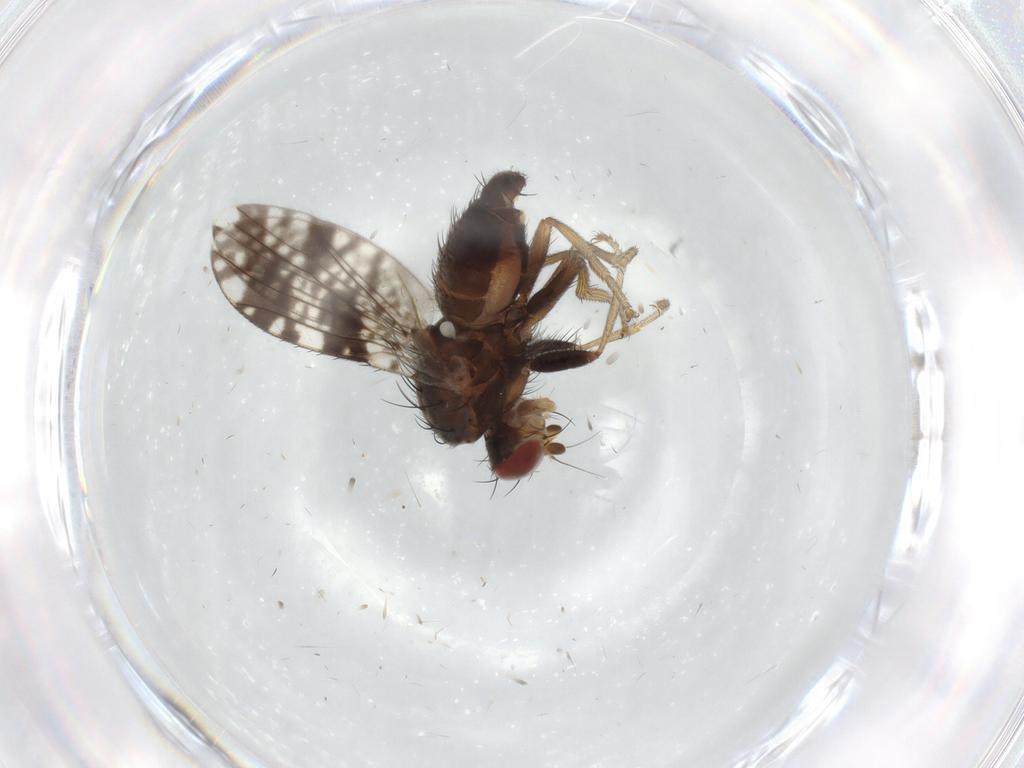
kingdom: Animalia
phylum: Arthropoda
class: Insecta
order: Diptera
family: Tephritidae
